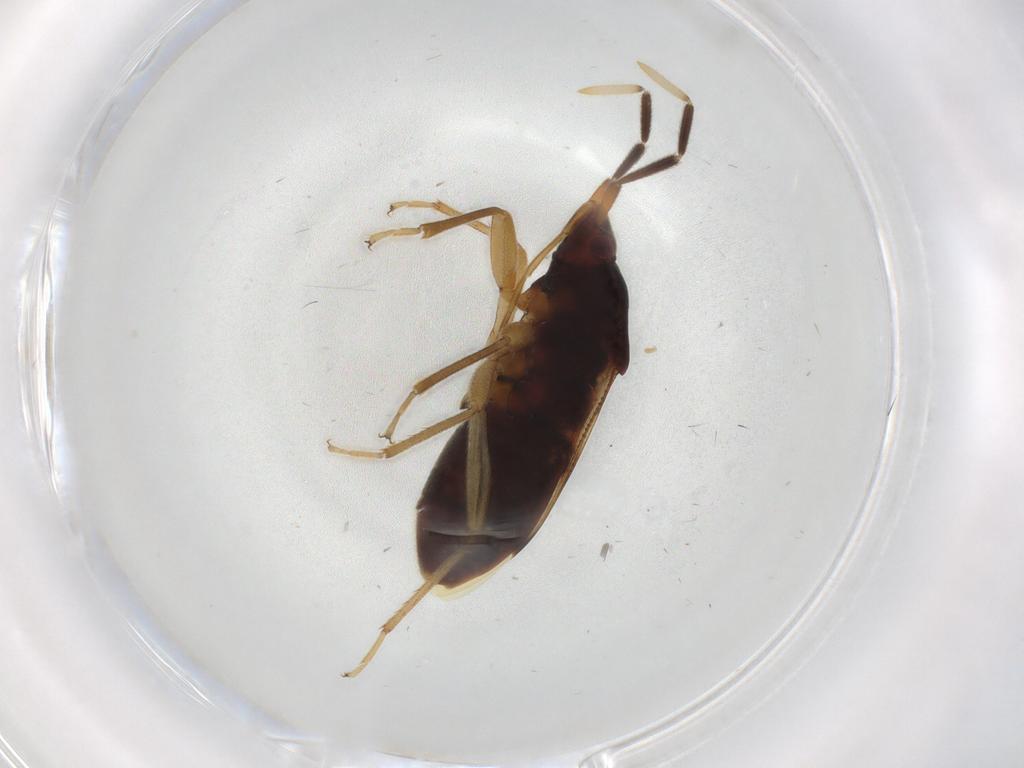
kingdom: Animalia
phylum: Arthropoda
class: Insecta
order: Hemiptera
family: Rhyparochromidae
